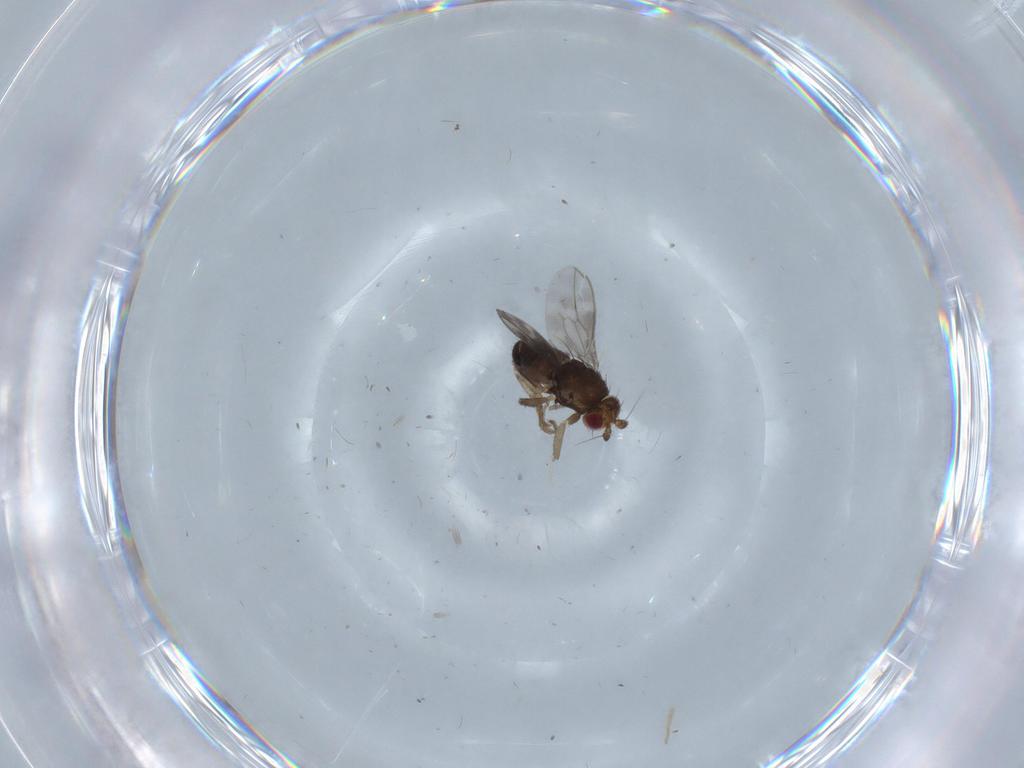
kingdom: Animalia
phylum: Arthropoda
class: Insecta
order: Diptera
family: Sphaeroceridae
